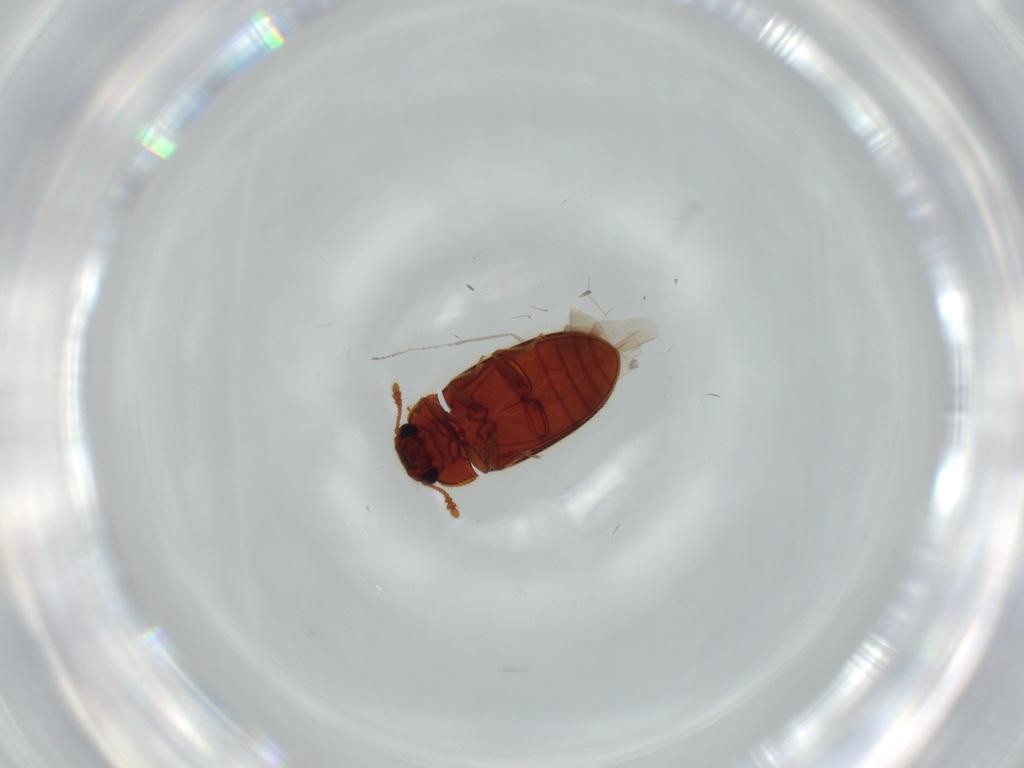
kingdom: Animalia
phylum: Arthropoda
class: Insecta
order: Coleoptera
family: Biphyllidae
